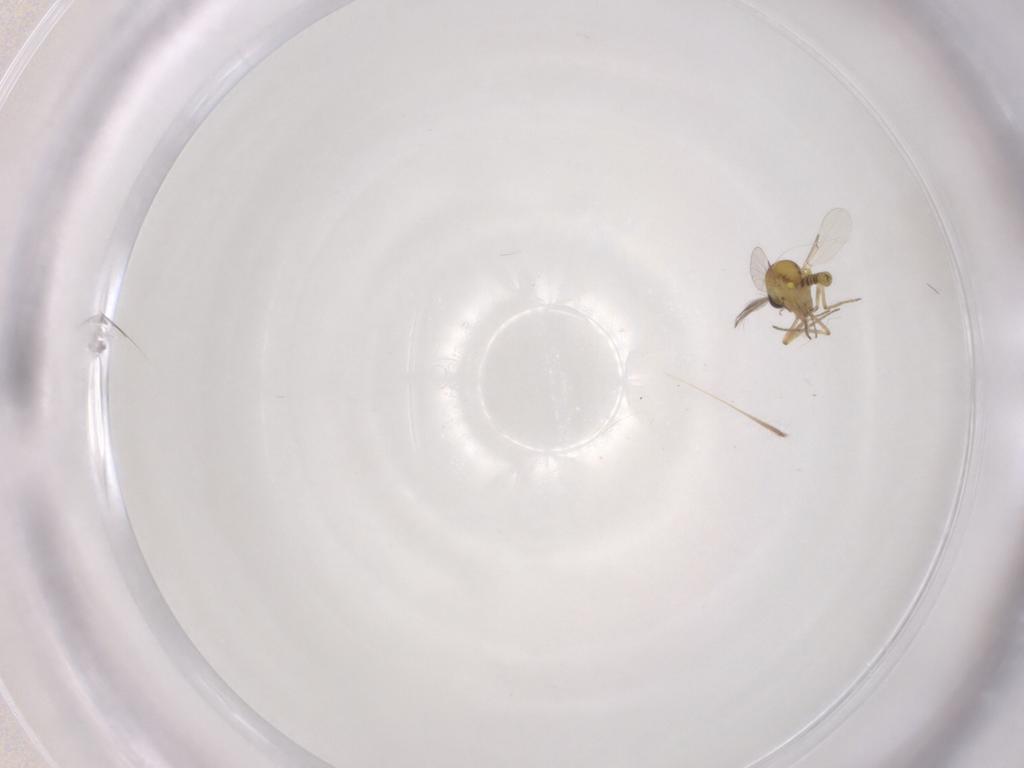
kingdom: Animalia
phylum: Arthropoda
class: Insecta
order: Diptera
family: Ceratopogonidae
